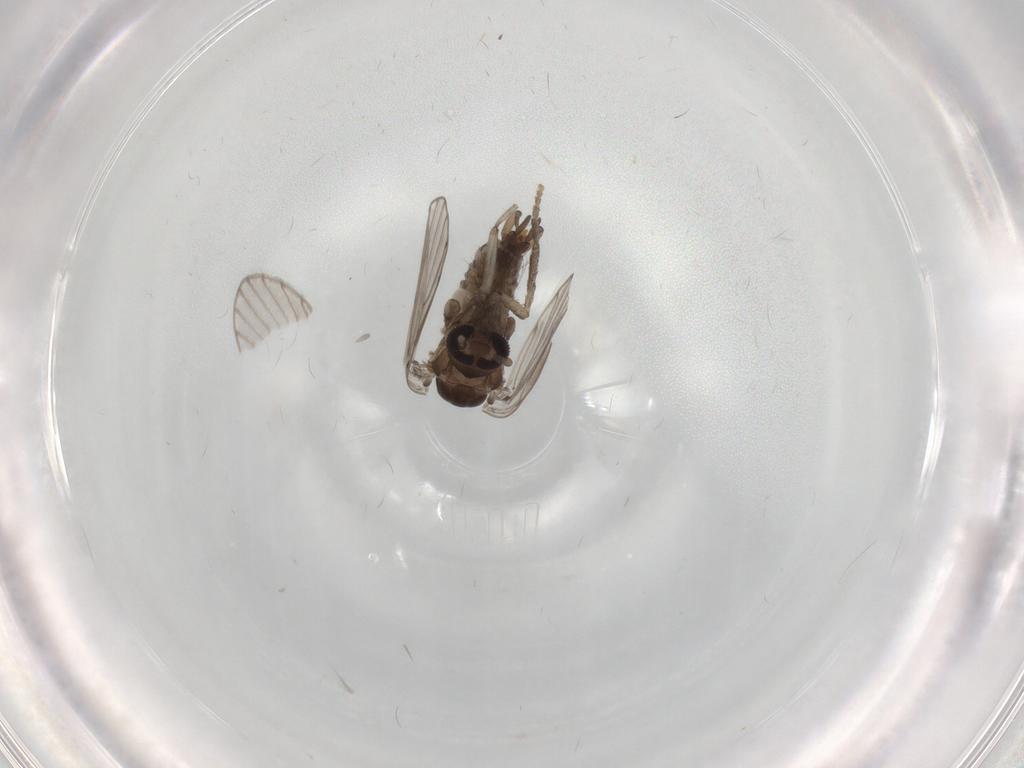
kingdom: Animalia
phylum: Arthropoda
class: Insecta
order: Diptera
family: Psychodidae
